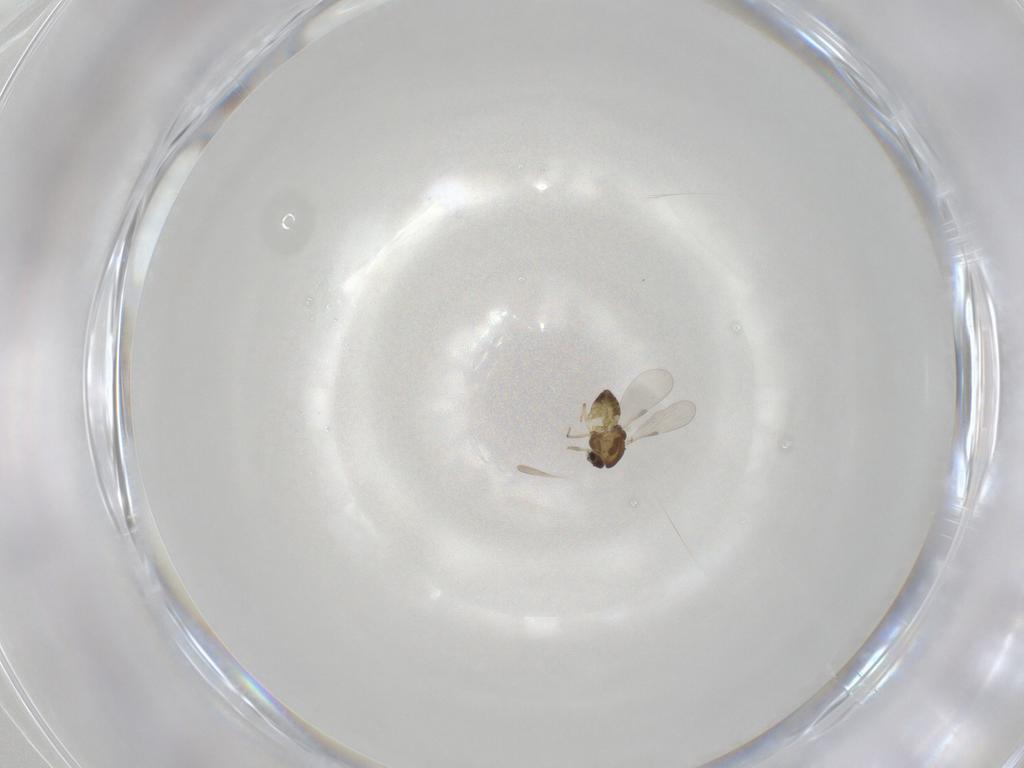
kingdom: Animalia
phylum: Arthropoda
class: Insecta
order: Diptera
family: Chironomidae
